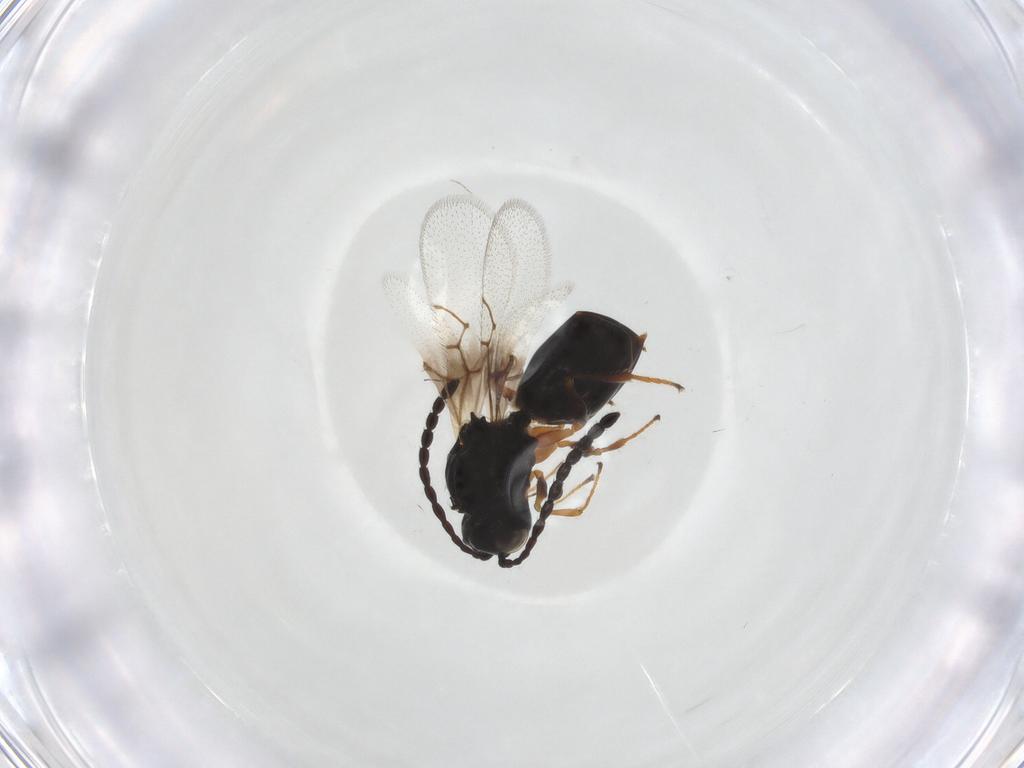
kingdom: Animalia
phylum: Arthropoda
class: Insecta
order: Hymenoptera
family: Scelionidae
